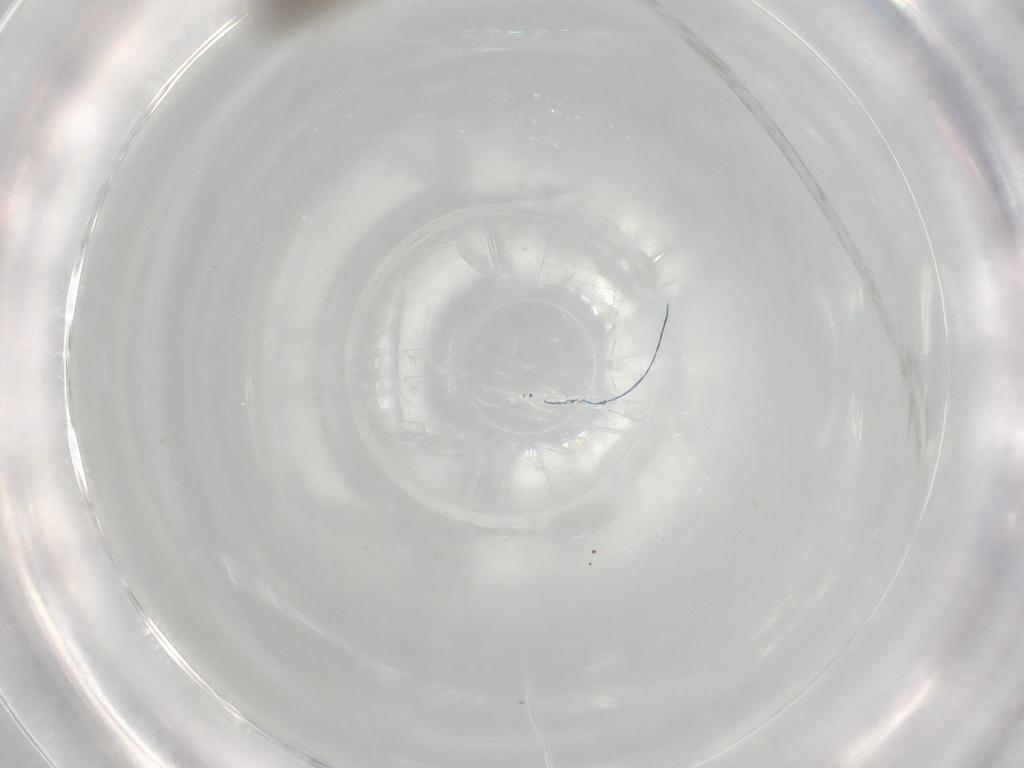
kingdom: Animalia
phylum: Arthropoda
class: Insecta
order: Diptera
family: Chironomidae
